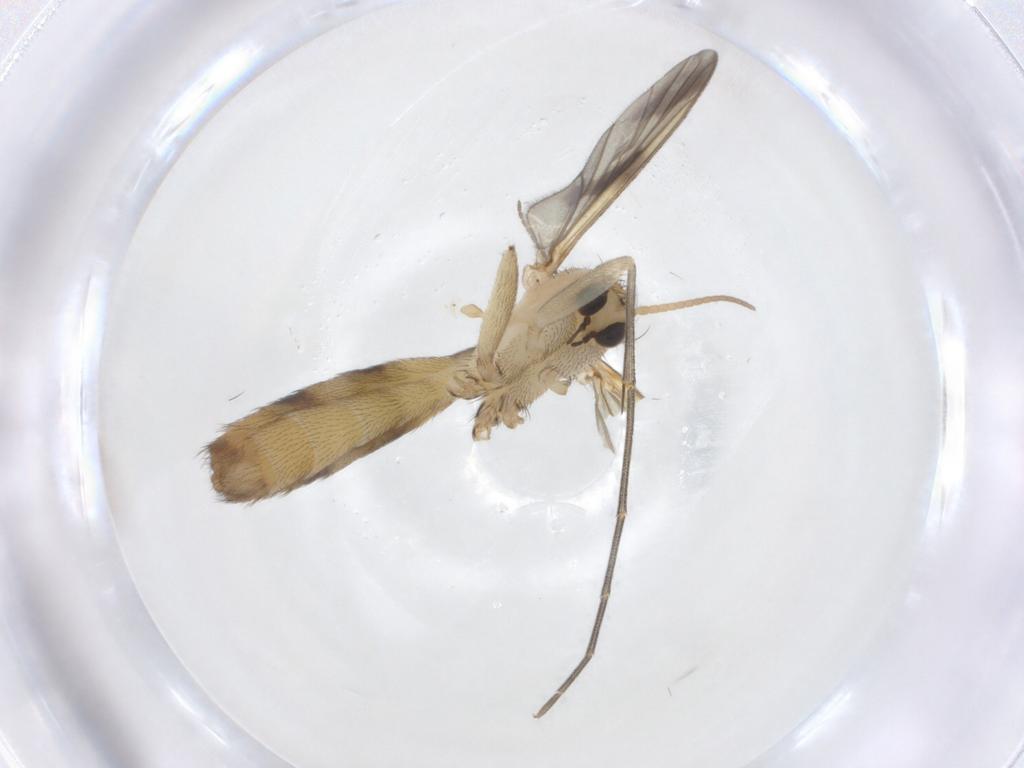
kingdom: Animalia
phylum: Arthropoda
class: Insecta
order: Diptera
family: Mycetophilidae
